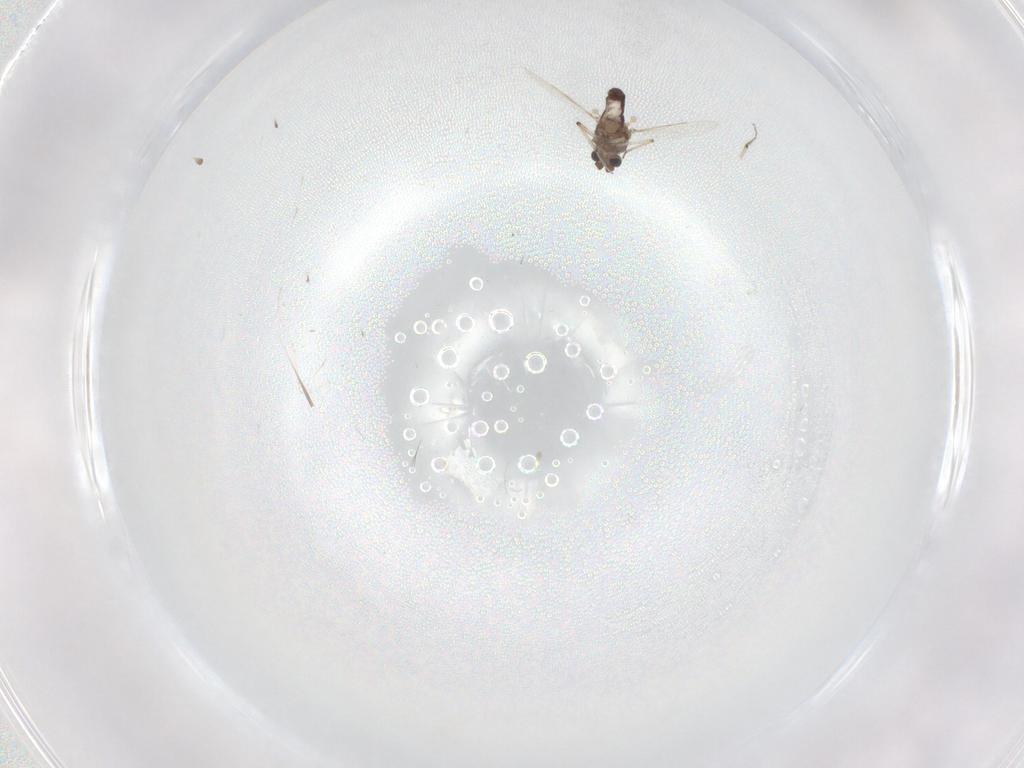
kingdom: Animalia
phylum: Arthropoda
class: Insecta
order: Diptera
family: Ceratopogonidae
